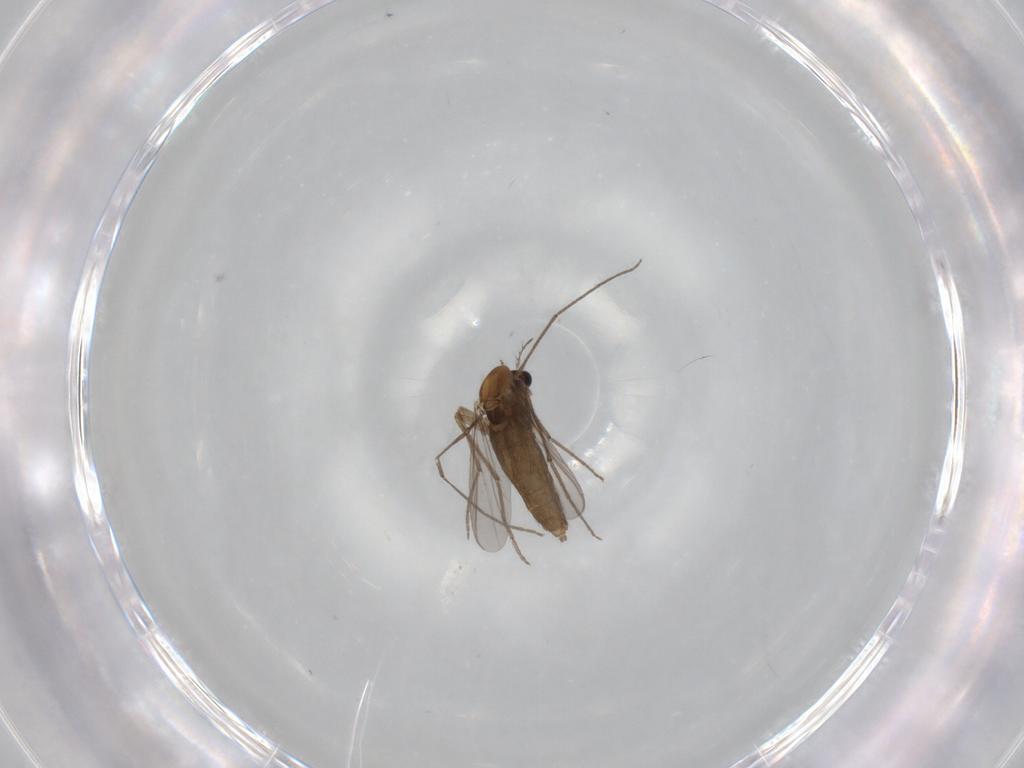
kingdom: Animalia
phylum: Arthropoda
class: Insecta
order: Diptera
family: Chironomidae
